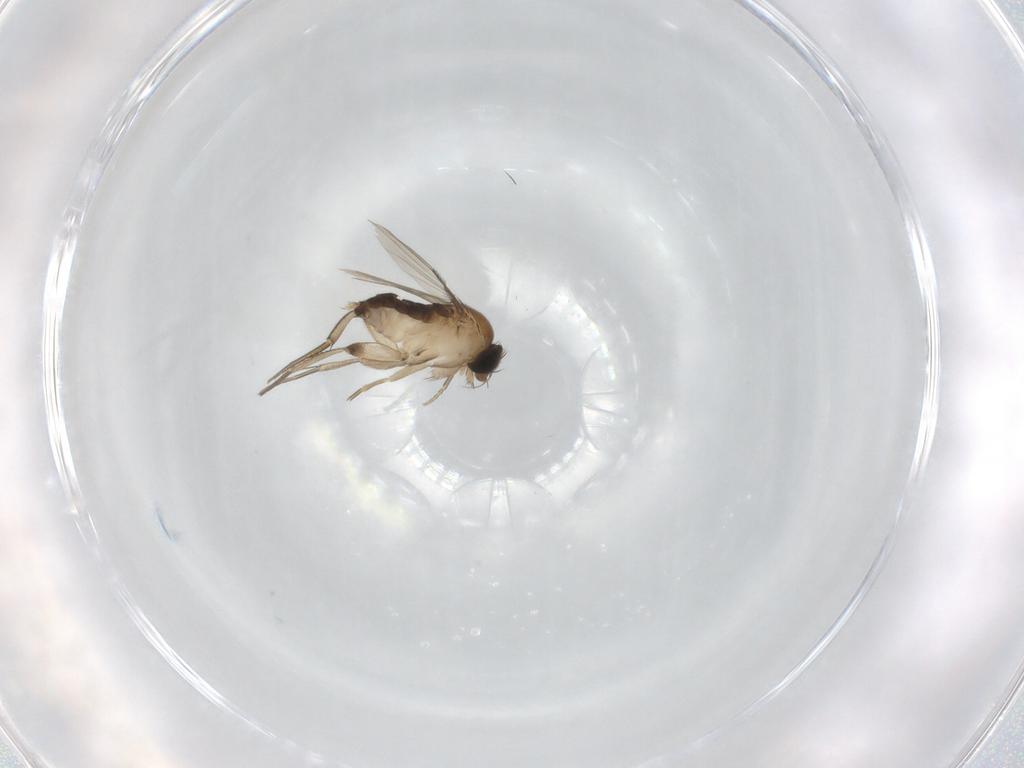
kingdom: Animalia
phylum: Arthropoda
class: Insecta
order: Diptera
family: Phoridae
